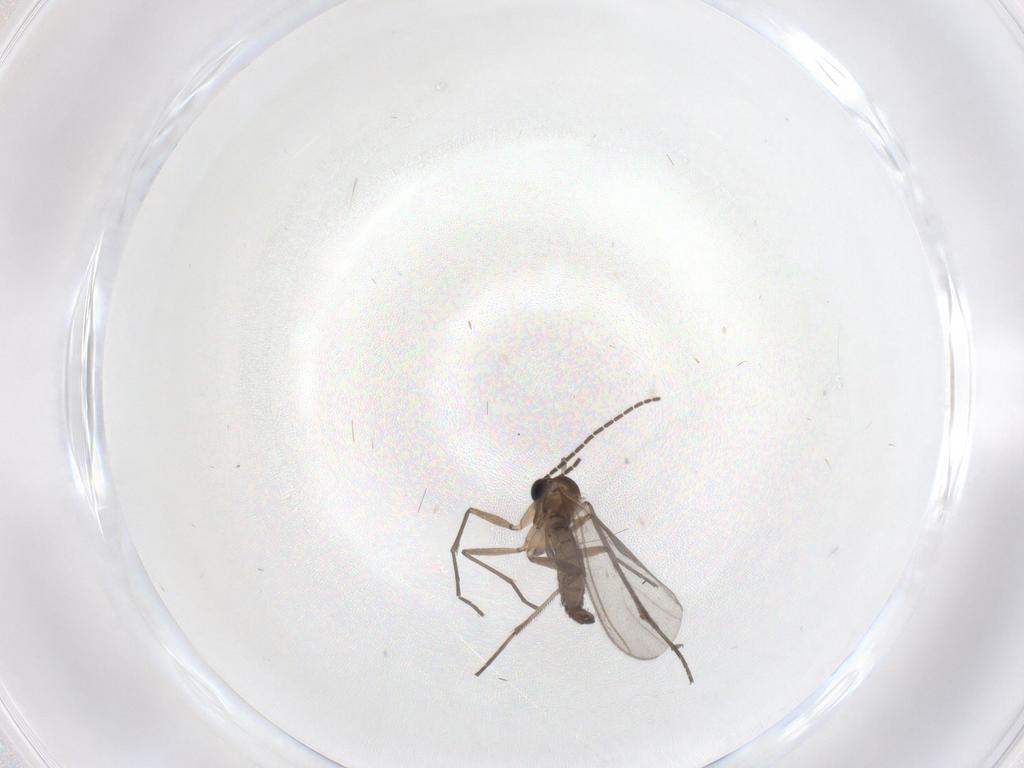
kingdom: Animalia
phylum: Arthropoda
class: Insecta
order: Diptera
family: Sciaridae
